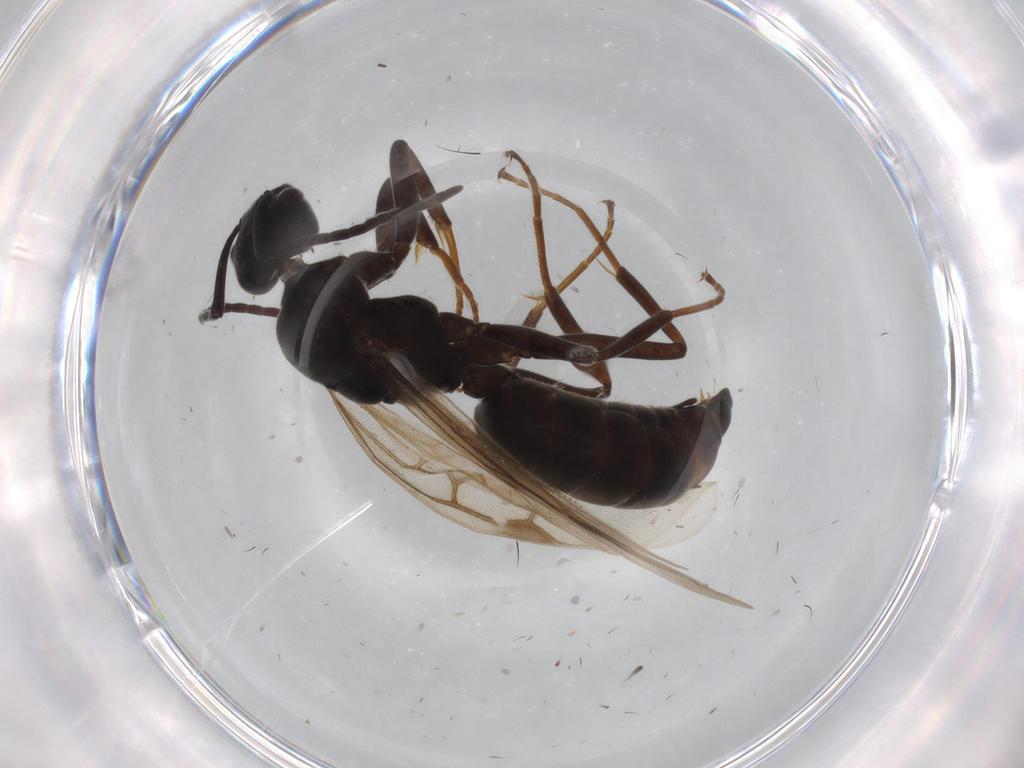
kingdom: Animalia
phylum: Arthropoda
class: Insecta
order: Hymenoptera
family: Formicidae
